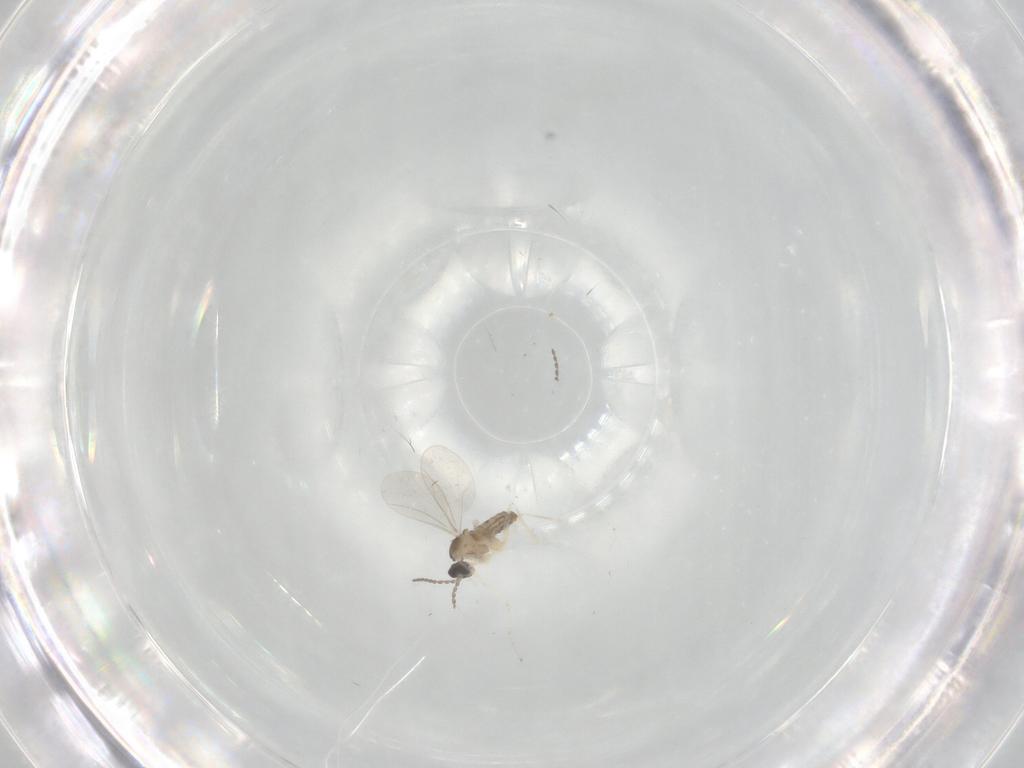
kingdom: Animalia
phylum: Arthropoda
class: Insecta
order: Diptera
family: Cecidomyiidae
